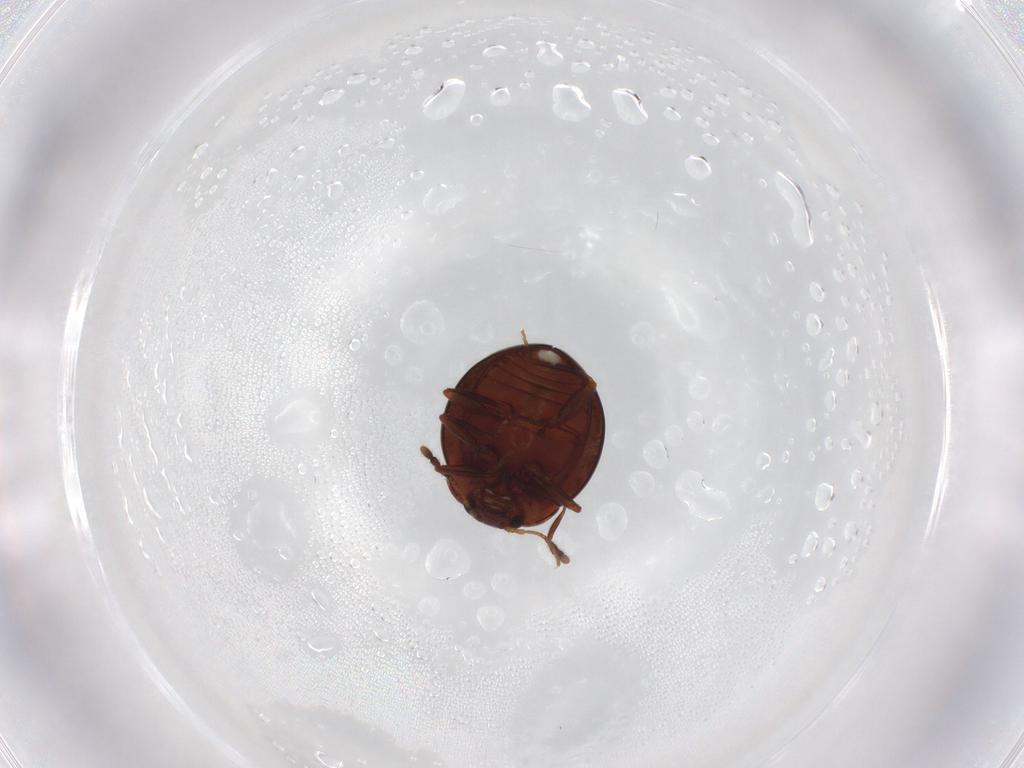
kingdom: Animalia
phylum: Arthropoda
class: Insecta
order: Coleoptera
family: Anamorphidae
